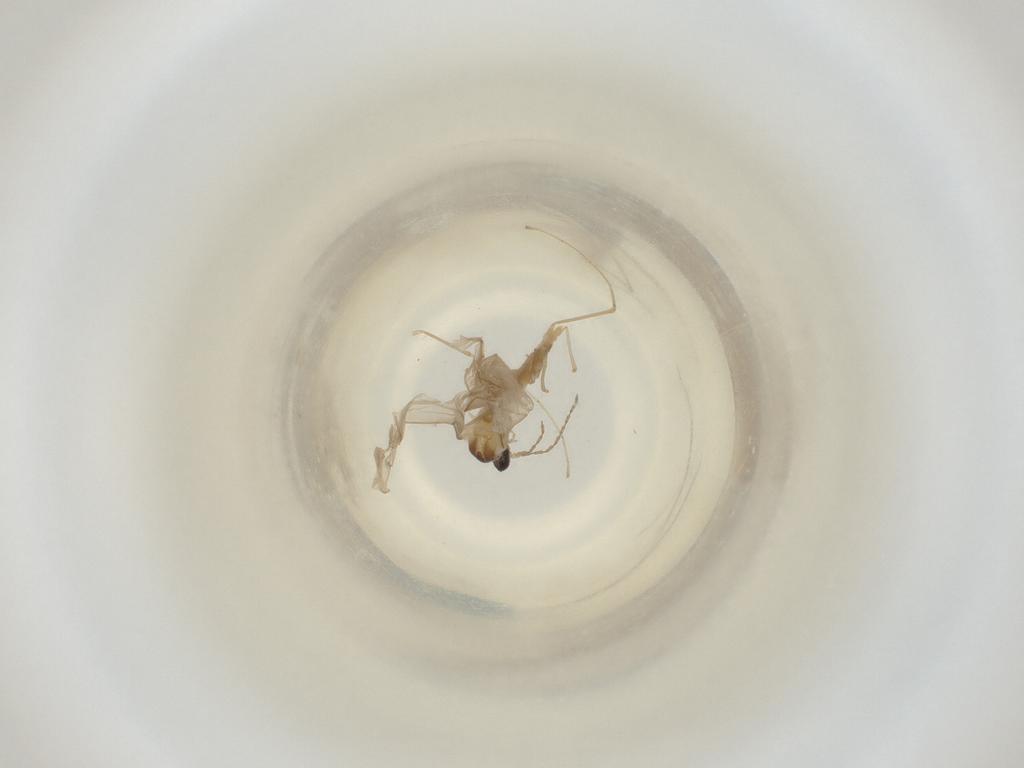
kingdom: Animalia
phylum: Arthropoda
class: Insecta
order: Diptera
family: Cecidomyiidae
